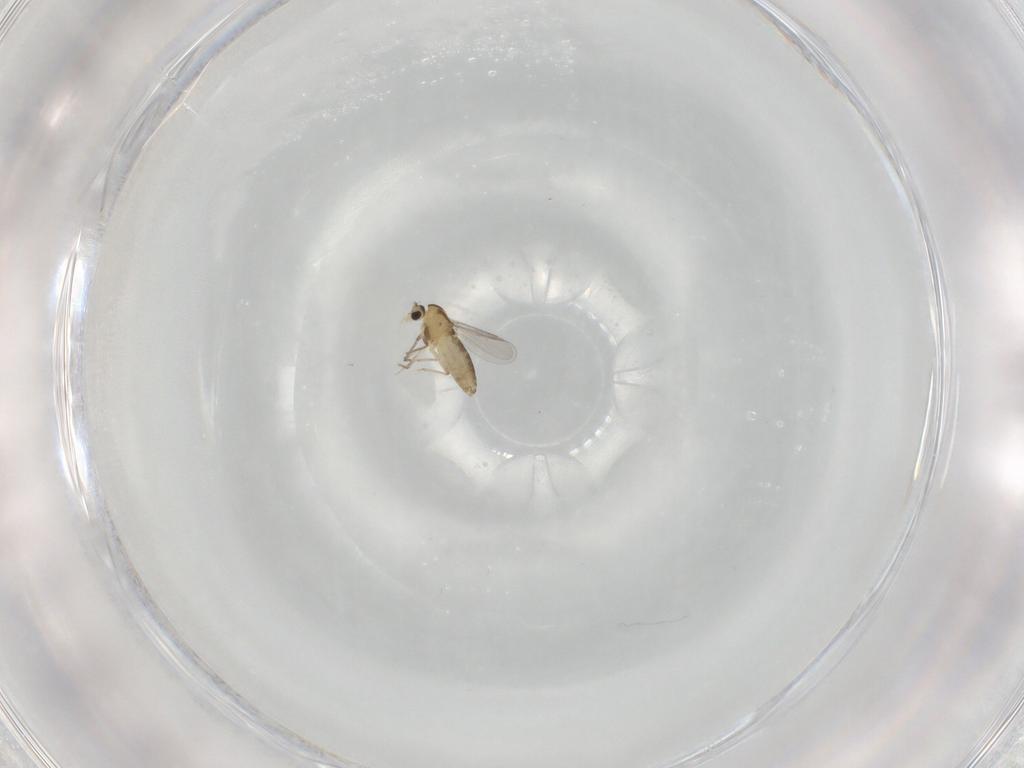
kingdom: Animalia
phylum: Arthropoda
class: Insecta
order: Diptera
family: Chironomidae
